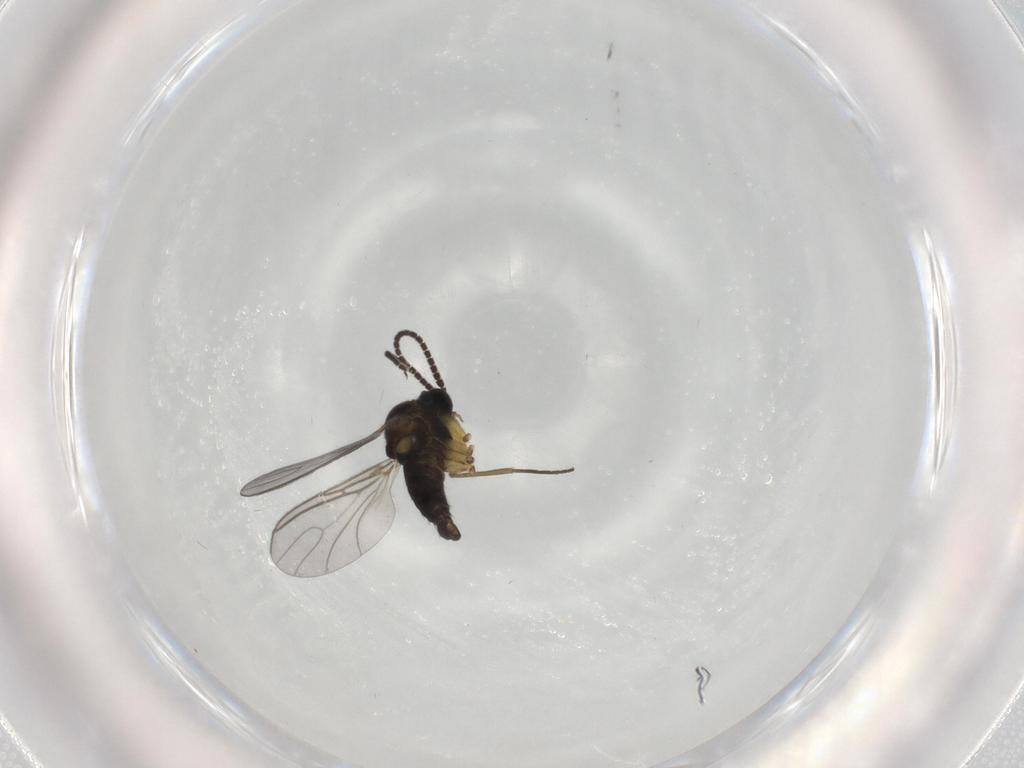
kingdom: Animalia
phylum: Arthropoda
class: Insecta
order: Diptera
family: Sciaridae
